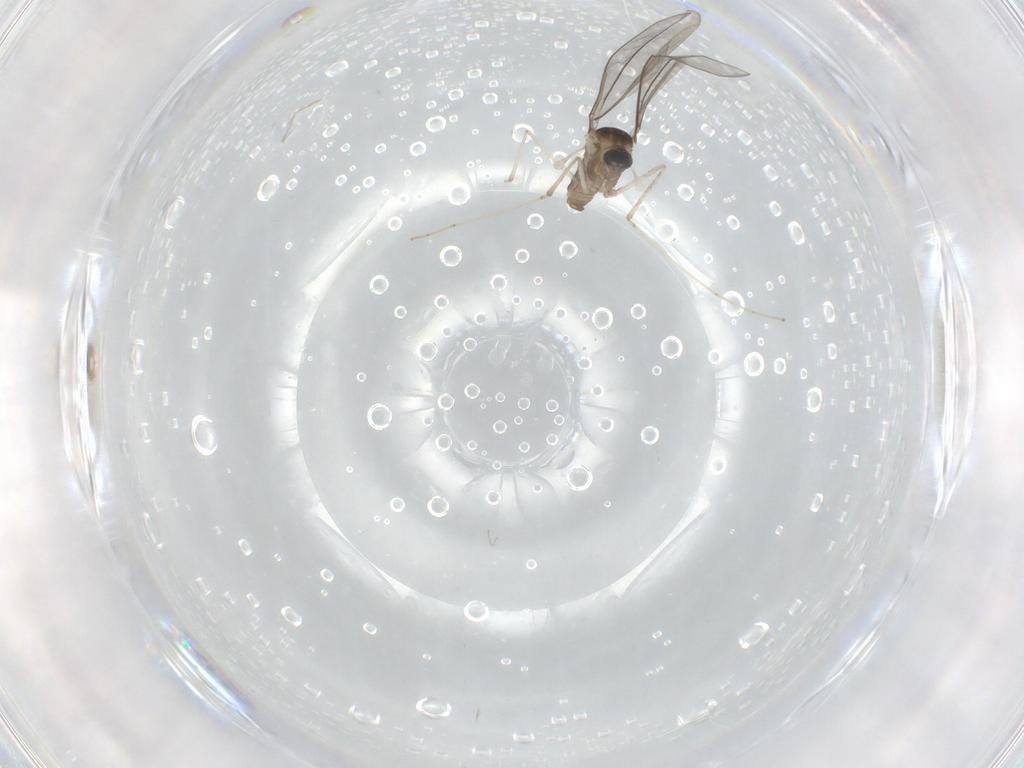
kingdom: Animalia
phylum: Arthropoda
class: Insecta
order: Diptera
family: Cecidomyiidae
